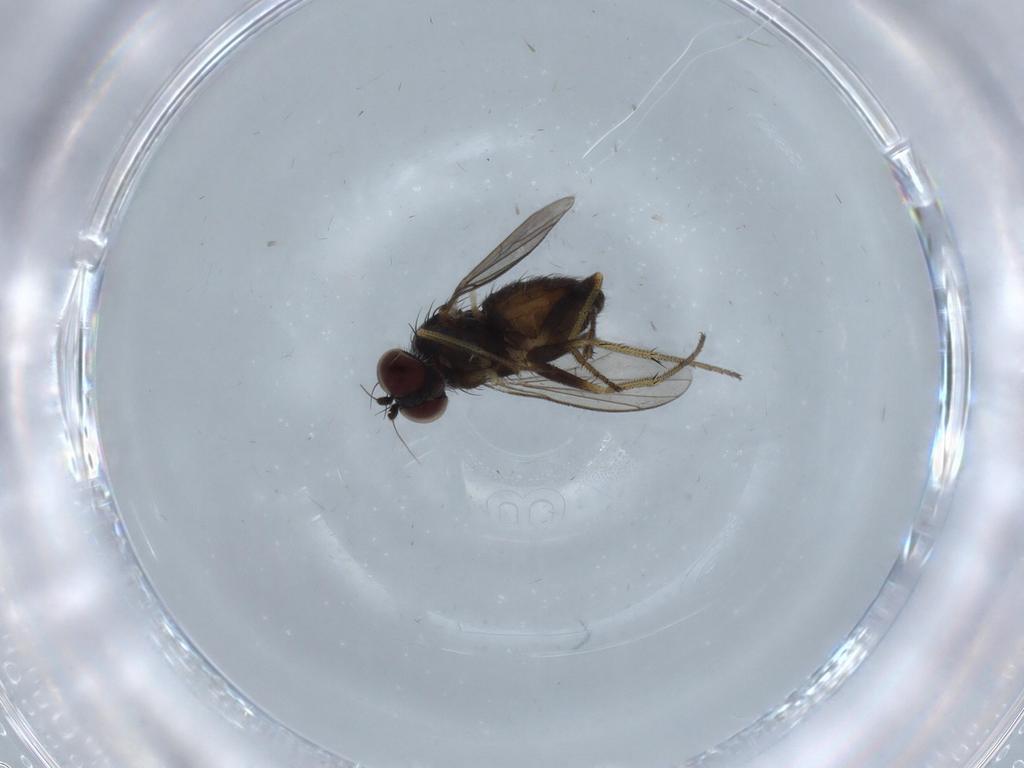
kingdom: Animalia
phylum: Arthropoda
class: Insecta
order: Diptera
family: Dolichopodidae
